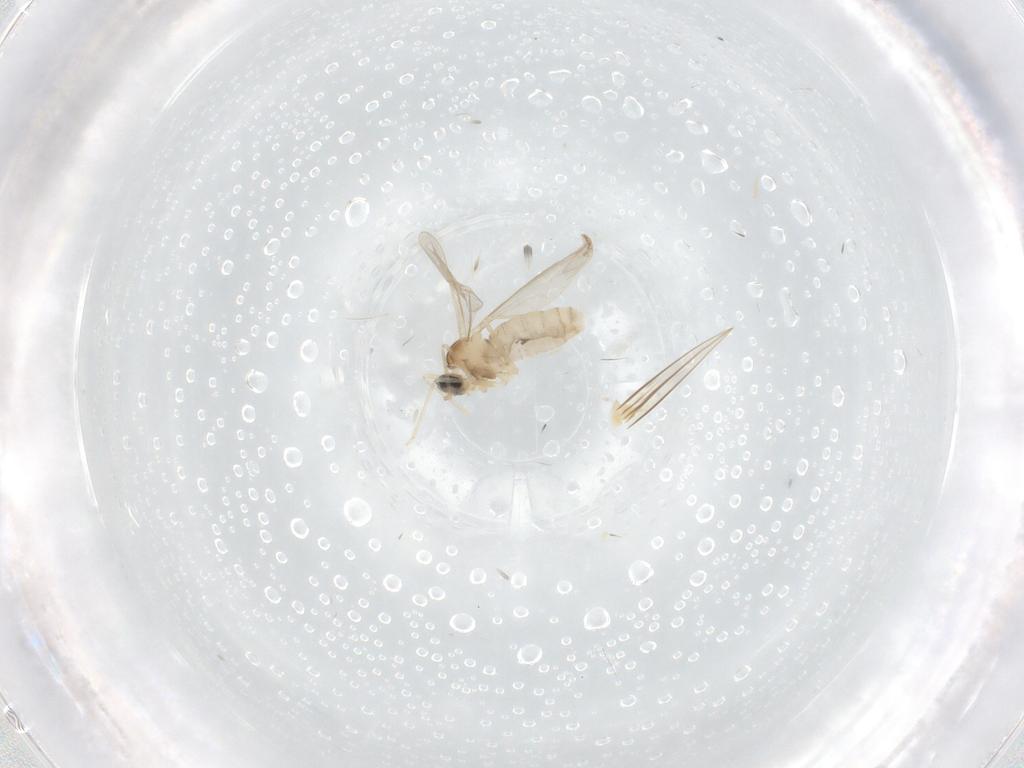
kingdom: Animalia
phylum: Arthropoda
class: Insecta
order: Diptera
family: Cecidomyiidae
